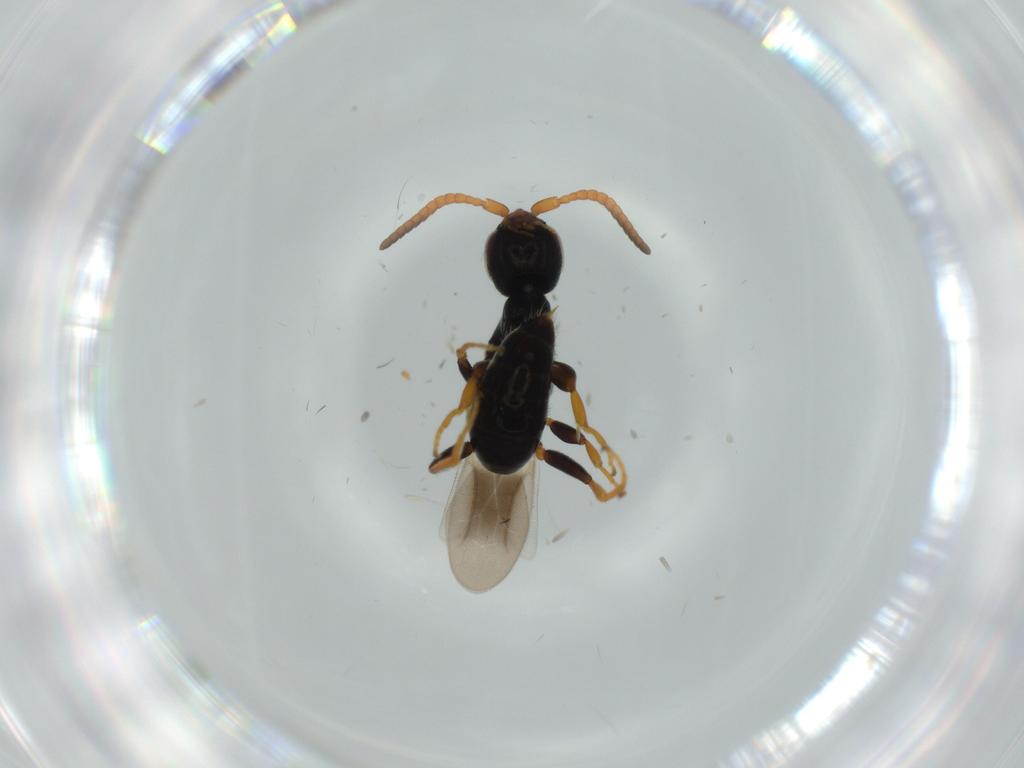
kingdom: Animalia
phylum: Arthropoda
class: Insecta
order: Hymenoptera
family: Bethylidae
